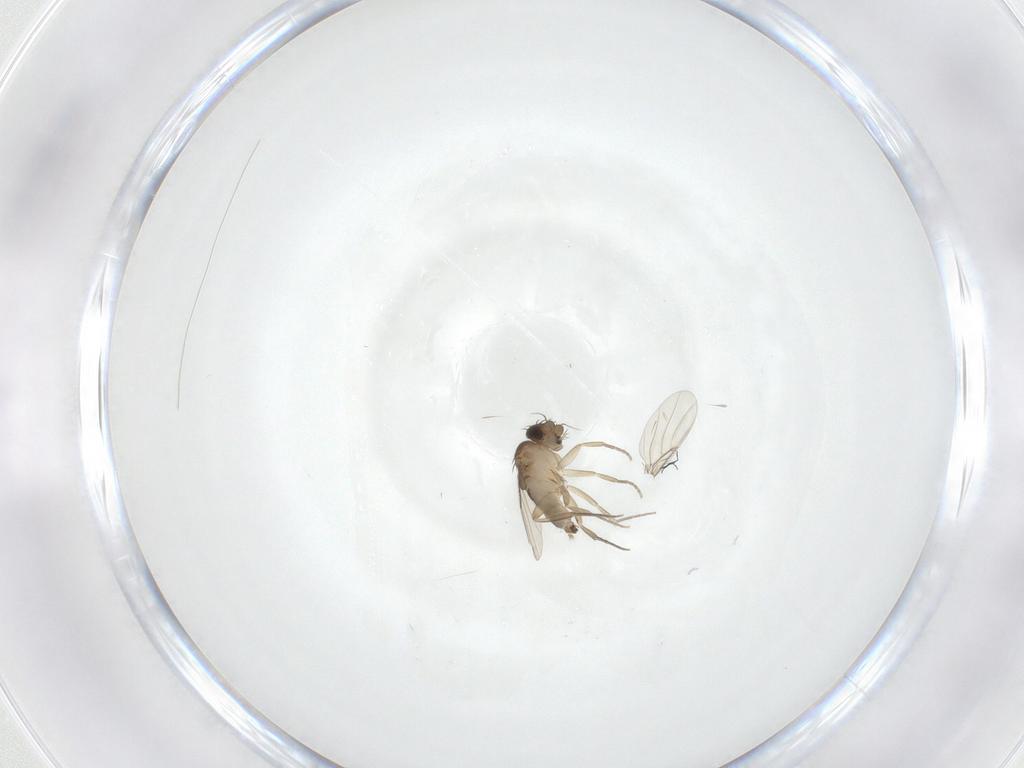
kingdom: Animalia
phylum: Arthropoda
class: Insecta
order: Diptera
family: Phoridae
